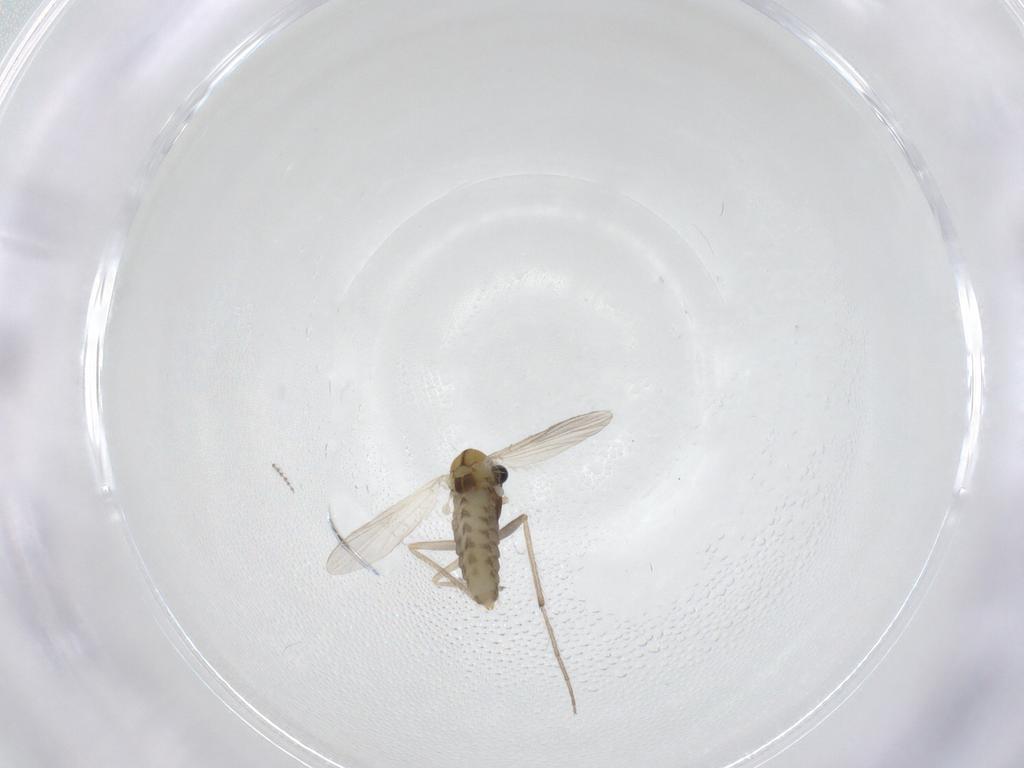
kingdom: Animalia
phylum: Arthropoda
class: Insecta
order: Diptera
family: Chironomidae
